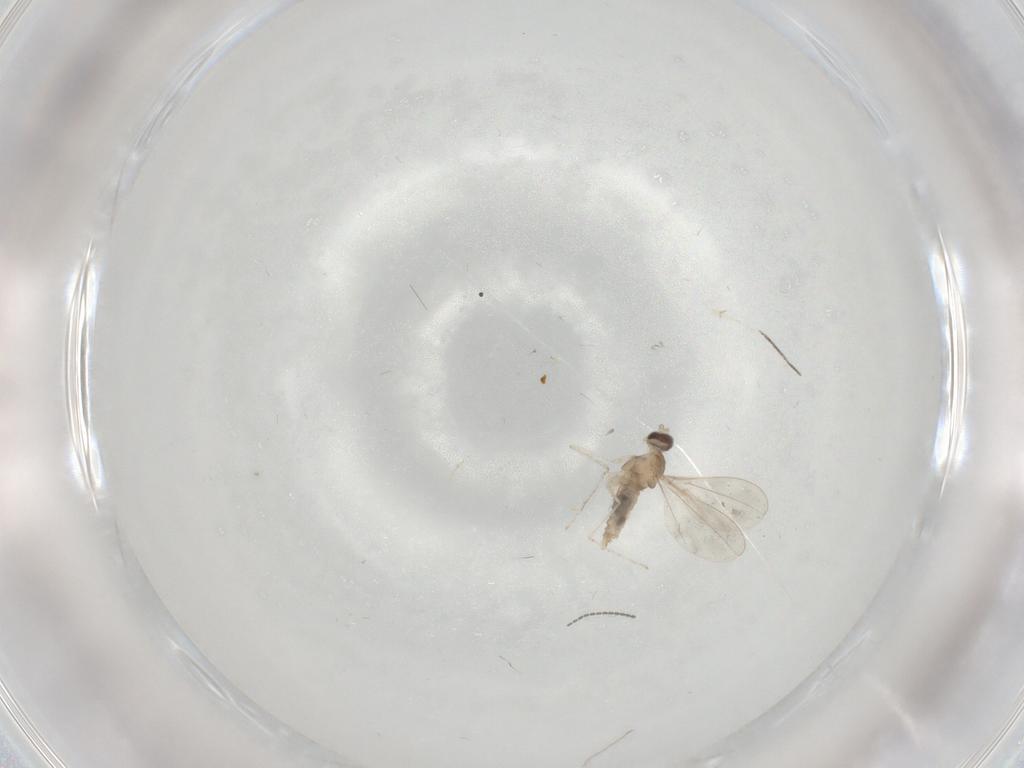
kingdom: Animalia
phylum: Arthropoda
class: Insecta
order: Diptera
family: Cecidomyiidae
